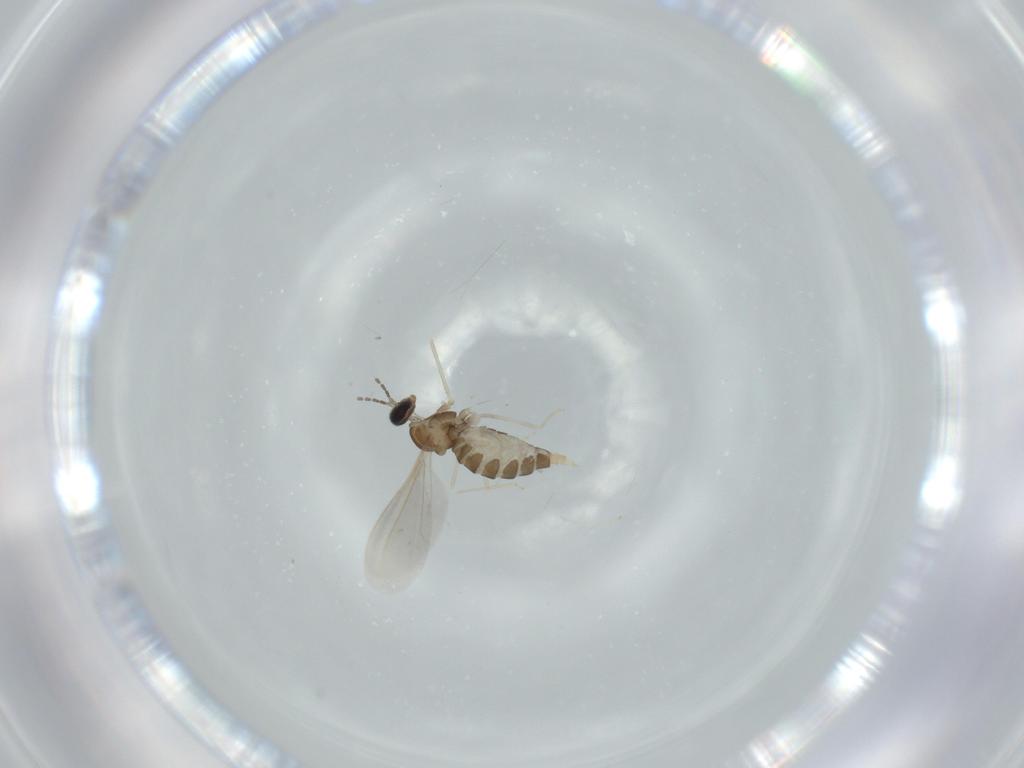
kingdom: Animalia
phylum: Arthropoda
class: Insecta
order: Diptera
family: Cecidomyiidae
